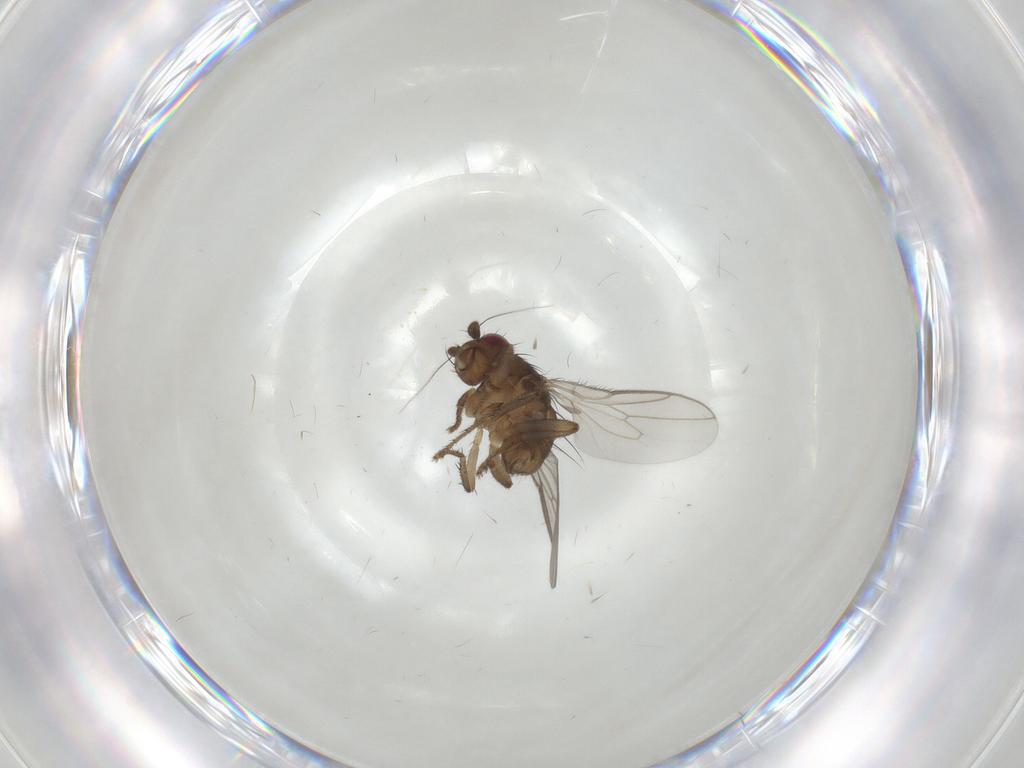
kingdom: Animalia
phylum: Arthropoda
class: Insecta
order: Diptera
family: Sphaeroceridae
